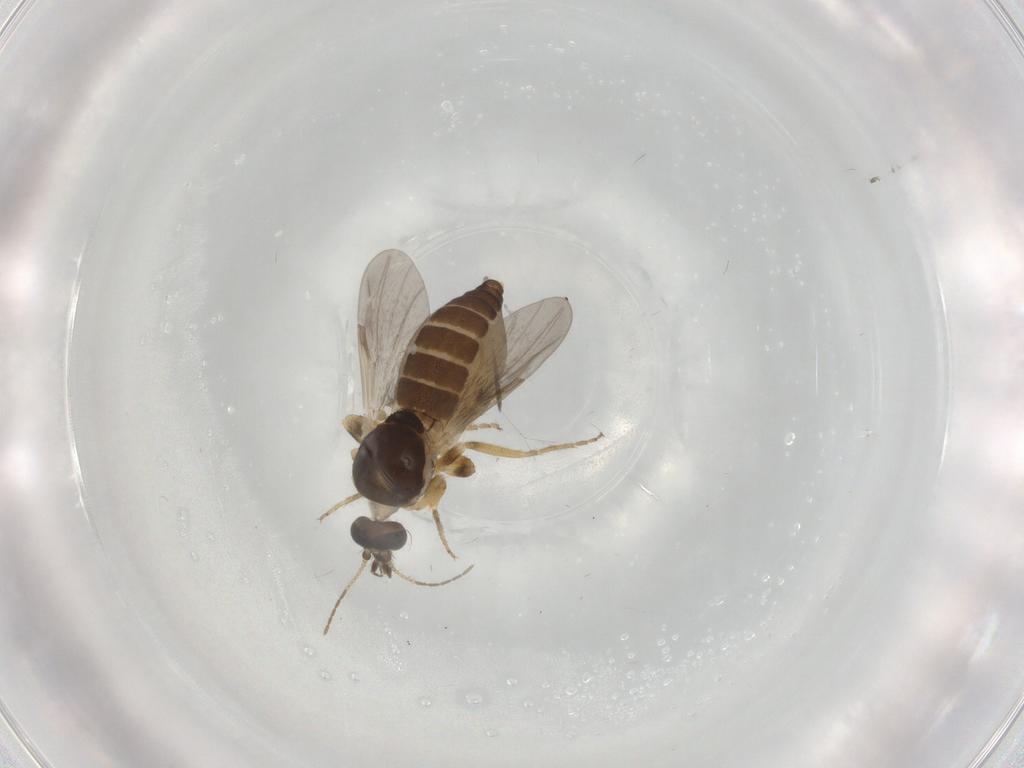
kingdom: Animalia
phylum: Arthropoda
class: Insecta
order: Diptera
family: Ceratopogonidae
